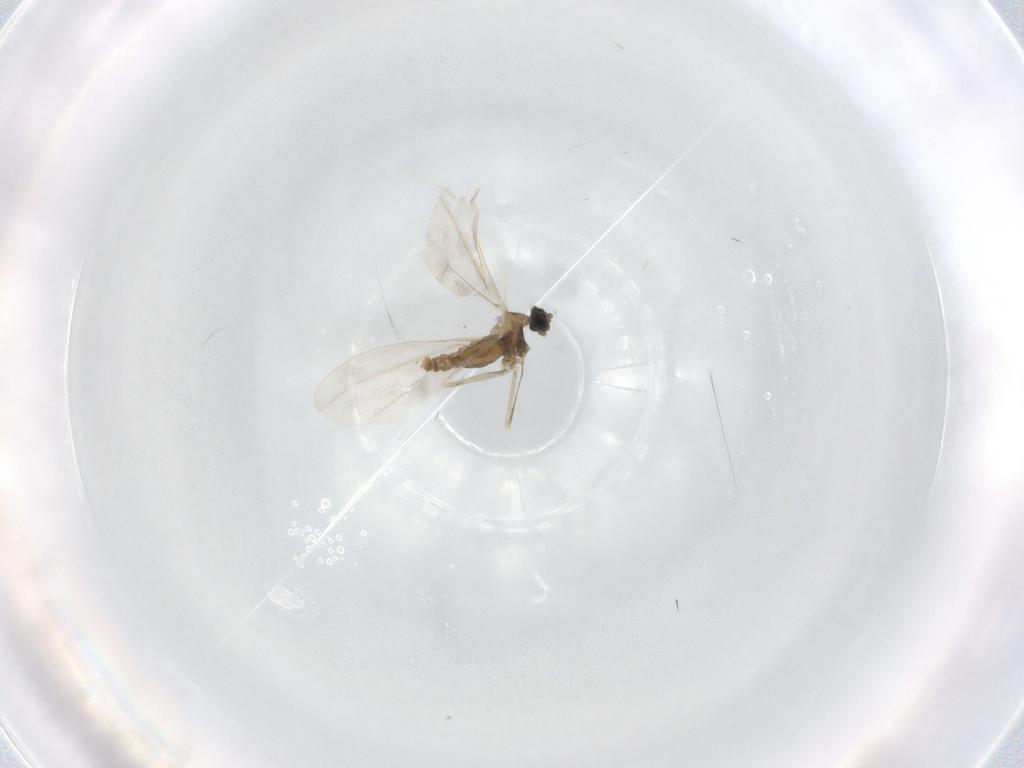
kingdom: Animalia
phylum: Arthropoda
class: Insecta
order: Diptera
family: Cecidomyiidae
